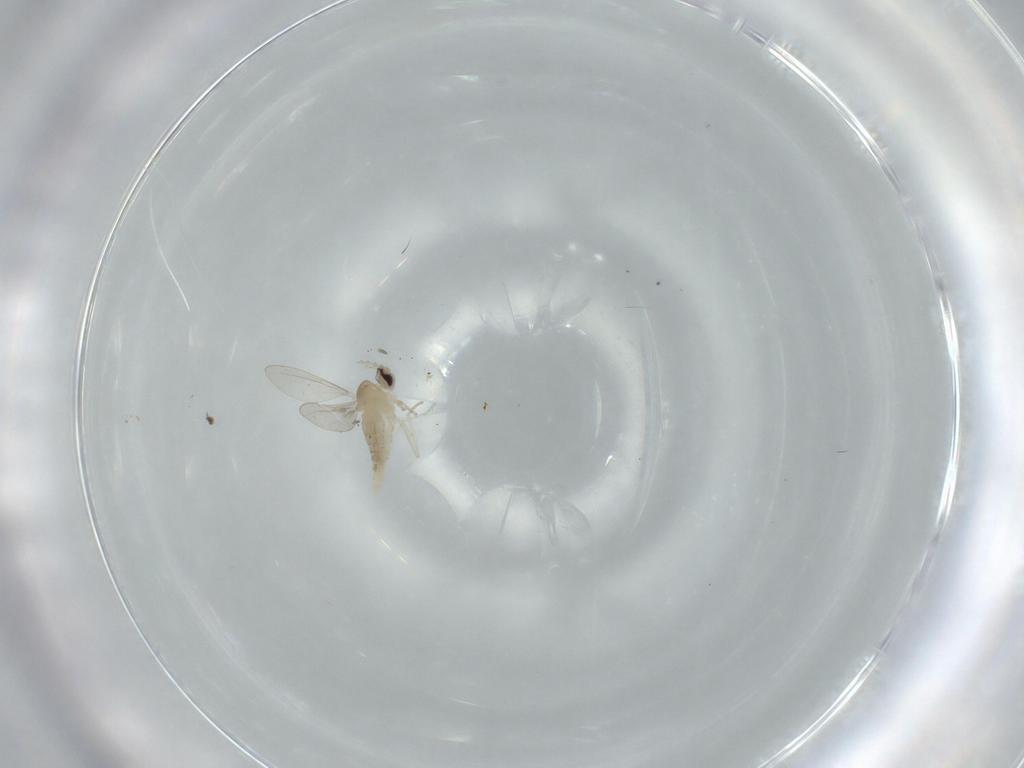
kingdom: Animalia
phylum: Arthropoda
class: Insecta
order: Diptera
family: Cecidomyiidae
